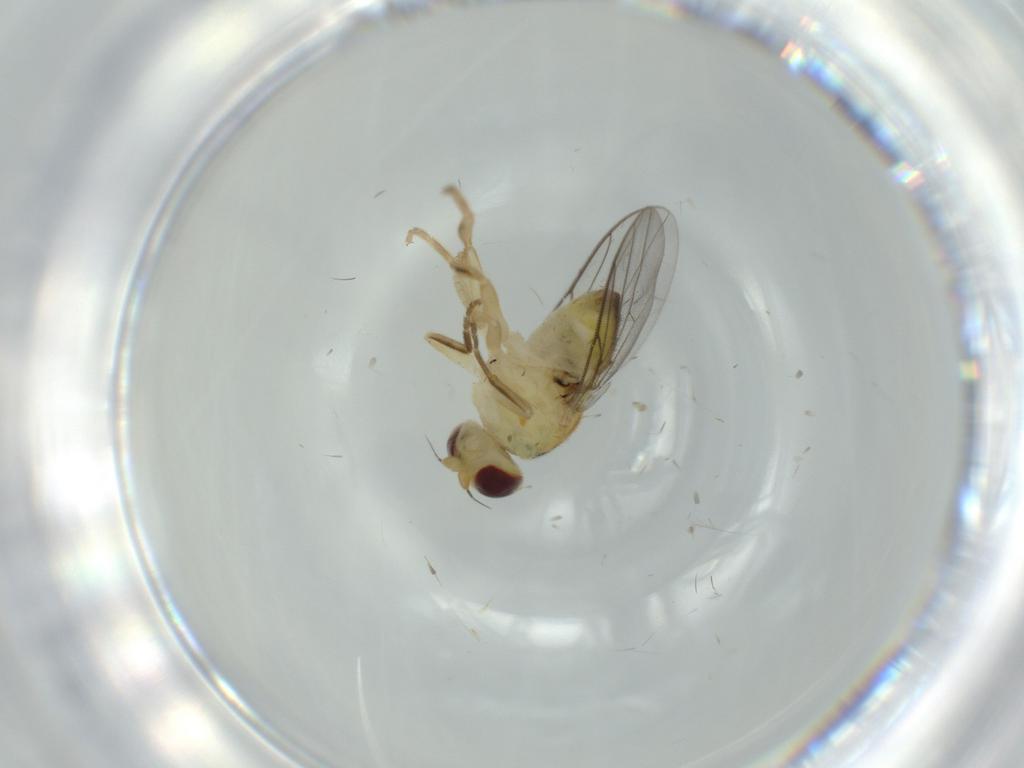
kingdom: Animalia
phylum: Arthropoda
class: Insecta
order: Diptera
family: Chloropidae
